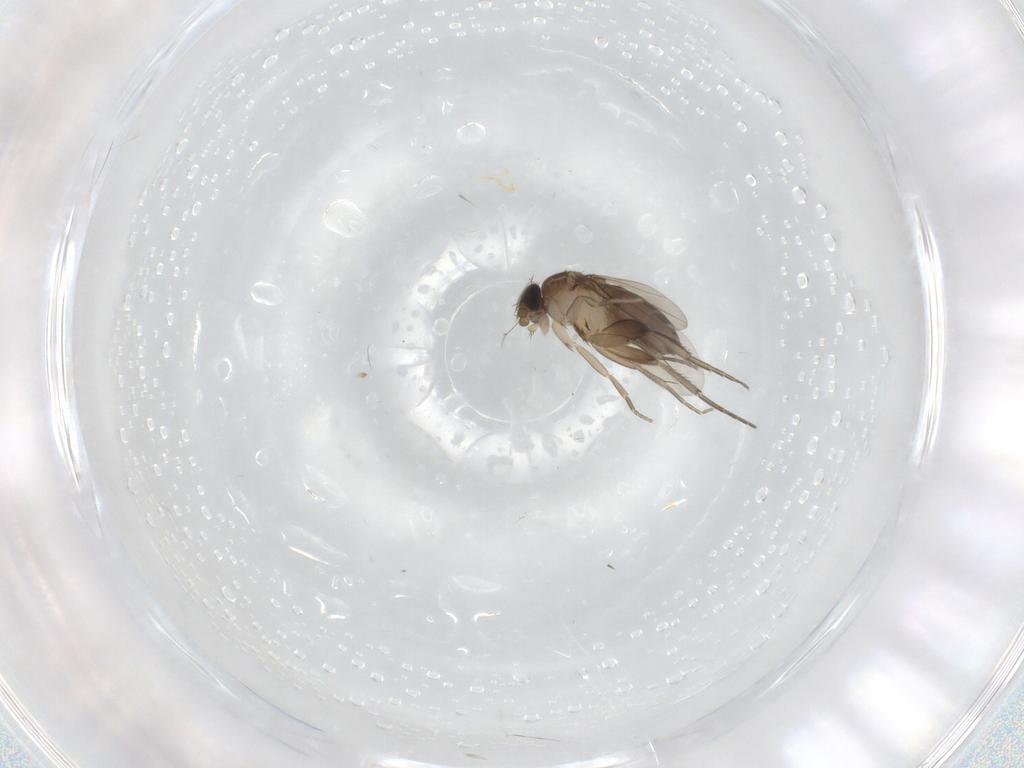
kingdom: Animalia
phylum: Arthropoda
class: Insecta
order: Diptera
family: Phoridae
